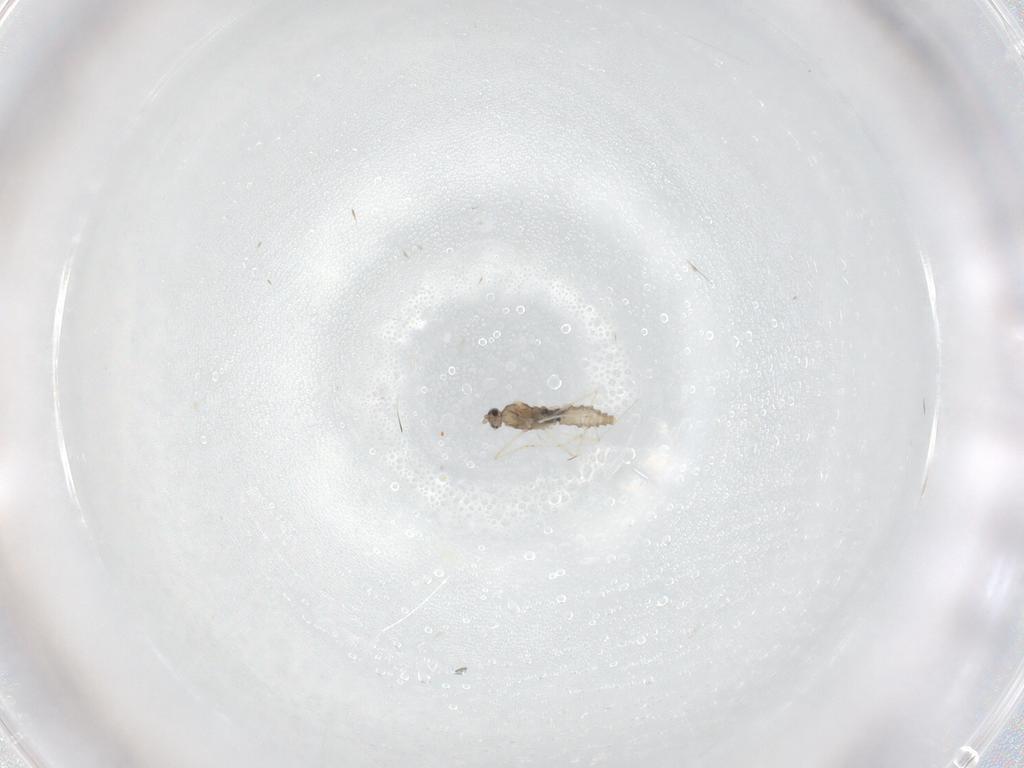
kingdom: Animalia
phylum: Arthropoda
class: Insecta
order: Diptera
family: Cecidomyiidae
